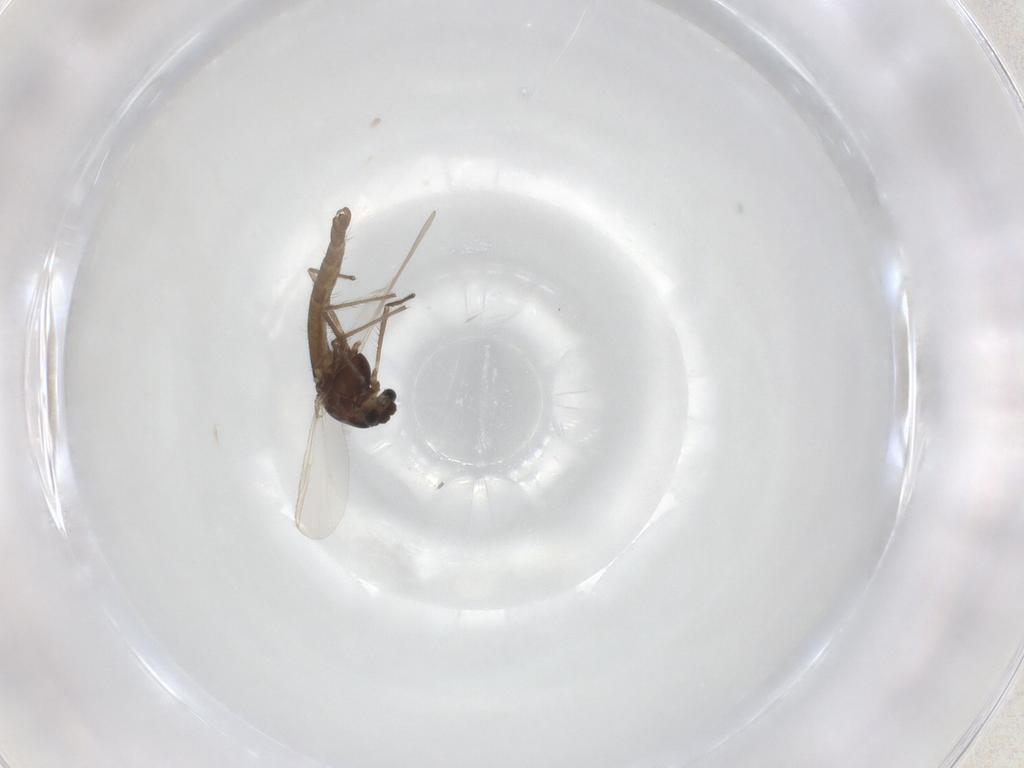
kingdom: Animalia
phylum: Arthropoda
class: Insecta
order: Diptera
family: Chironomidae
